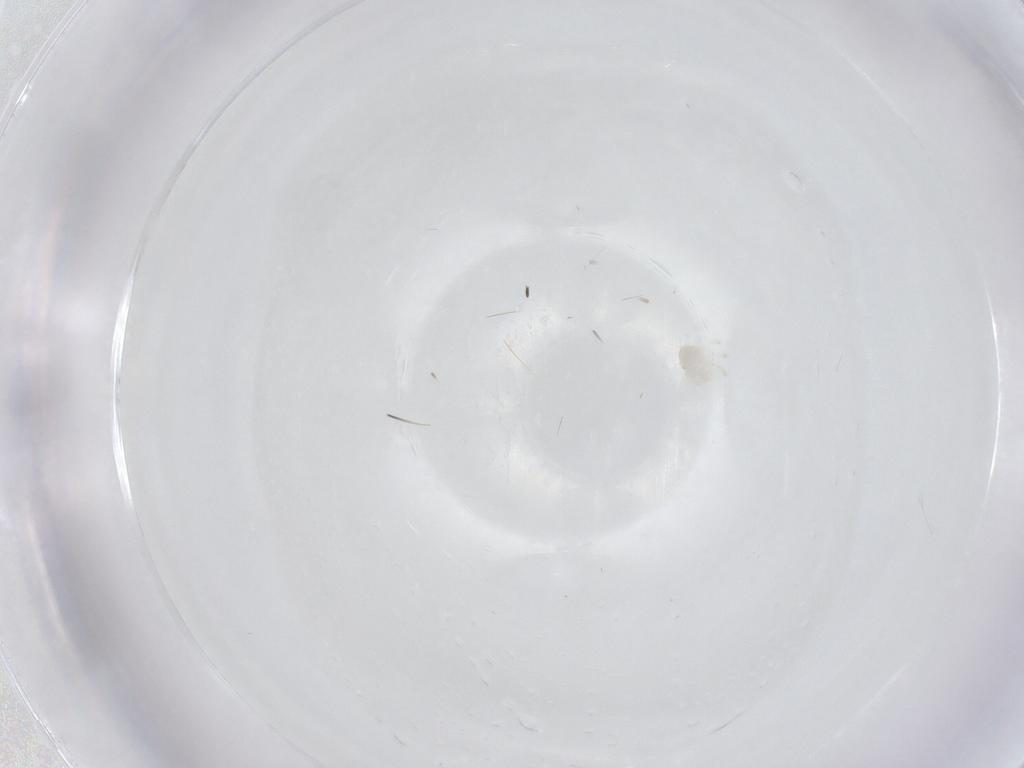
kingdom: Animalia
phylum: Arthropoda
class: Arachnida
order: Trombidiformes
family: Anystidae
